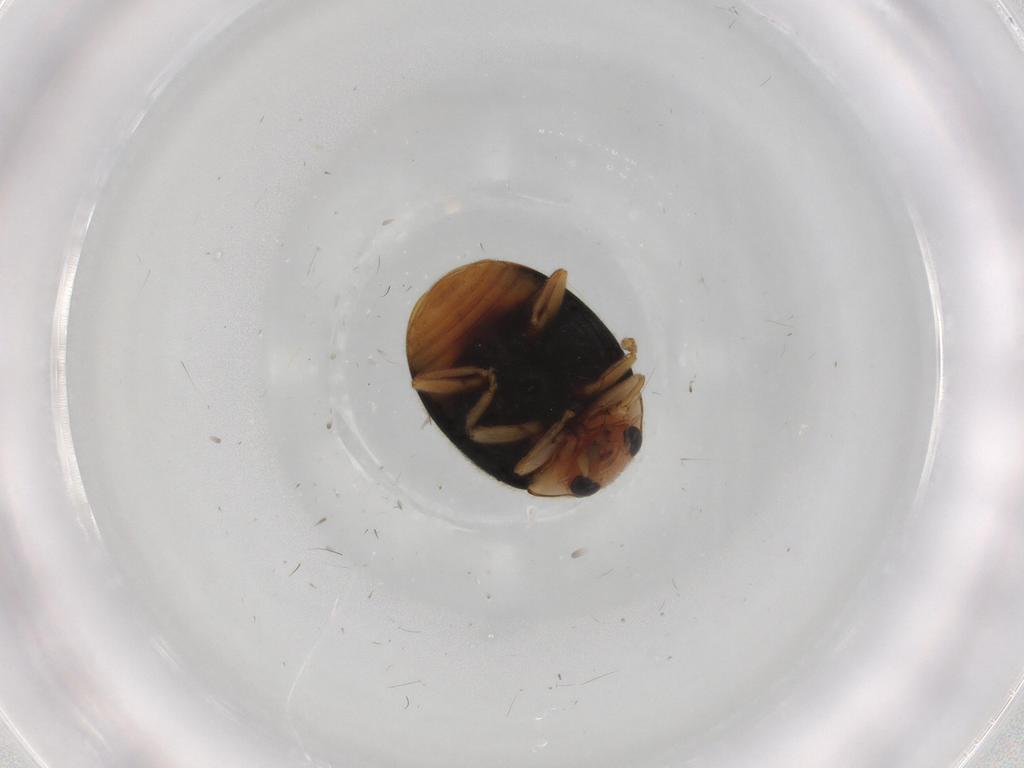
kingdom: Animalia
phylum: Arthropoda
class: Insecta
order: Coleoptera
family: Coccinellidae
